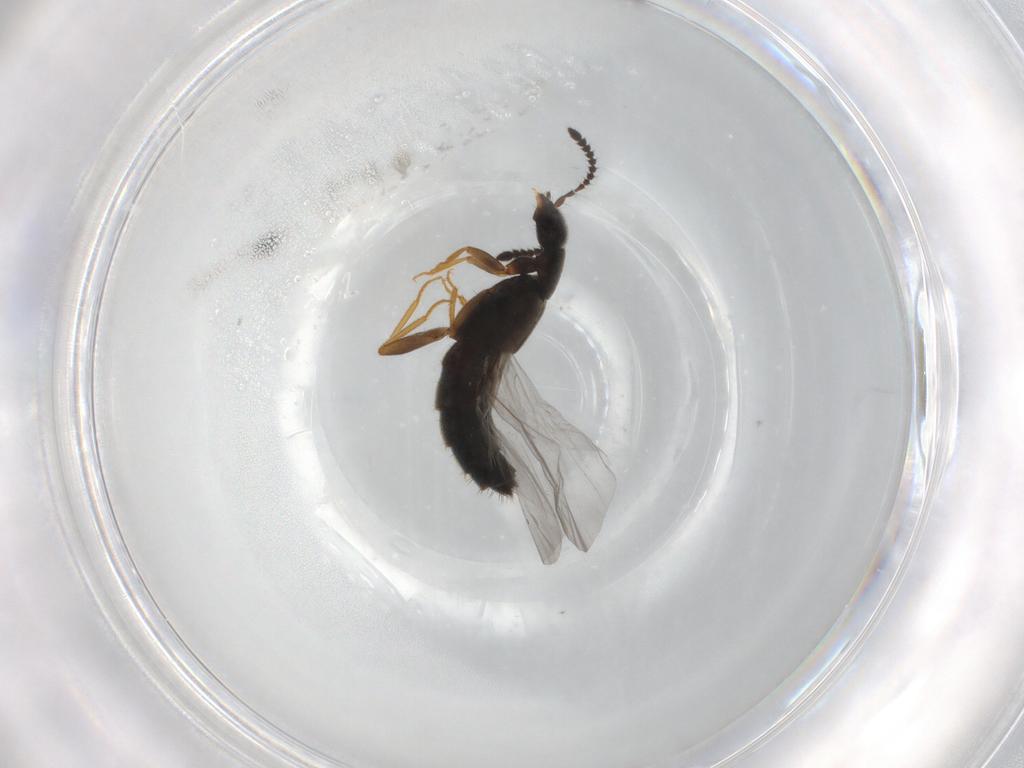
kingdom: Animalia
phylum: Arthropoda
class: Insecta
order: Coleoptera
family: Staphylinidae
